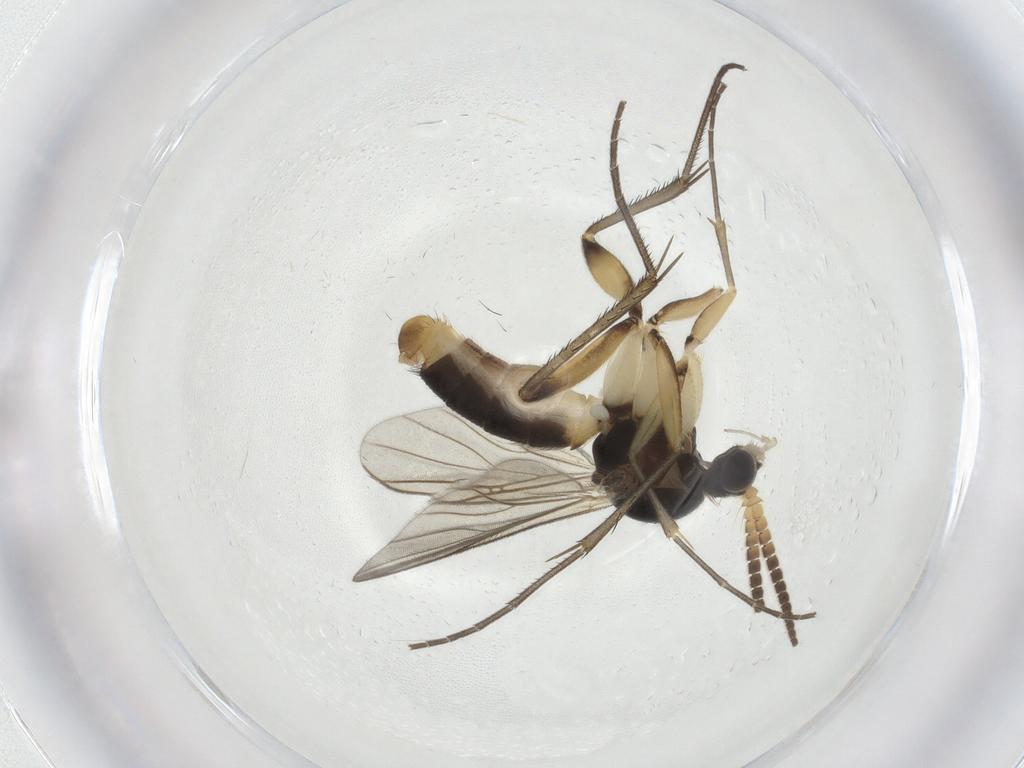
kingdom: Animalia
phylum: Arthropoda
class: Insecta
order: Diptera
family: Mycetophilidae
